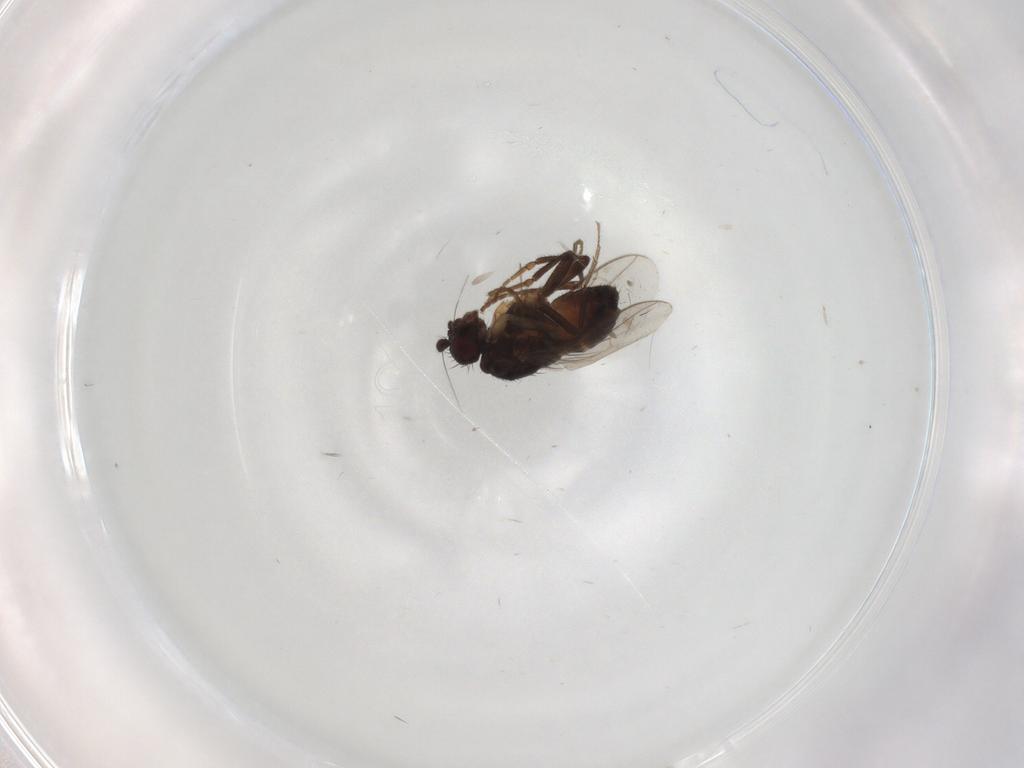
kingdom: Animalia
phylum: Arthropoda
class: Insecta
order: Diptera
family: Sphaeroceridae
